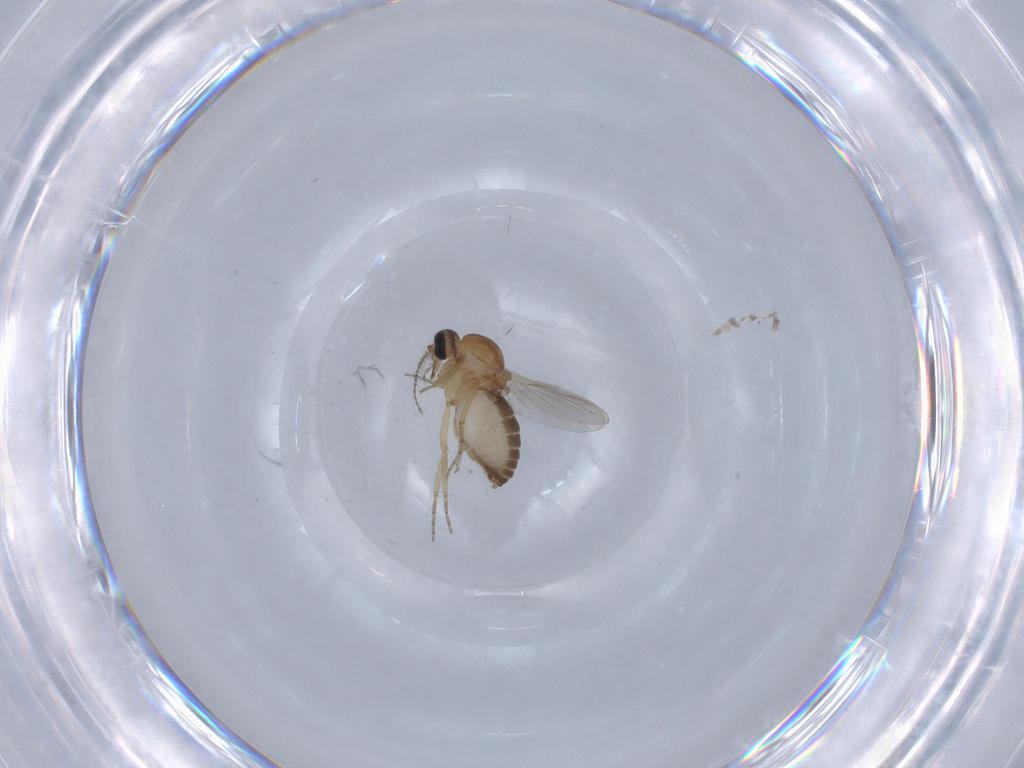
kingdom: Animalia
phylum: Arthropoda
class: Insecta
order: Diptera
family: Ceratopogonidae
